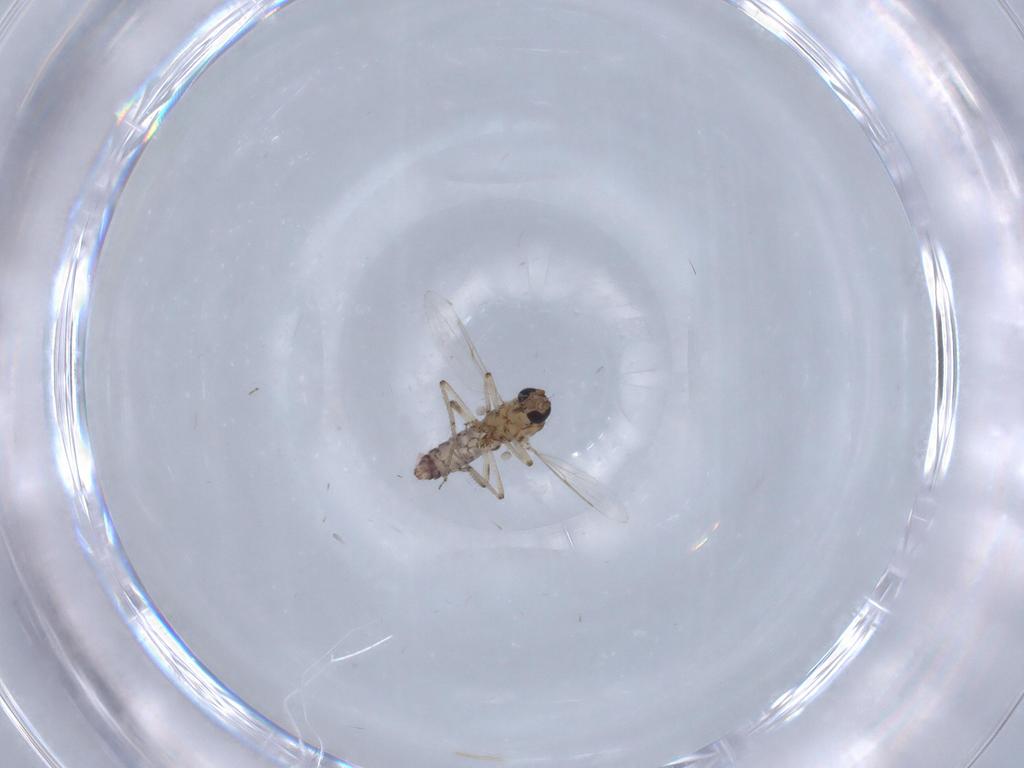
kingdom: Animalia
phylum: Arthropoda
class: Insecta
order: Diptera
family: Ceratopogonidae
